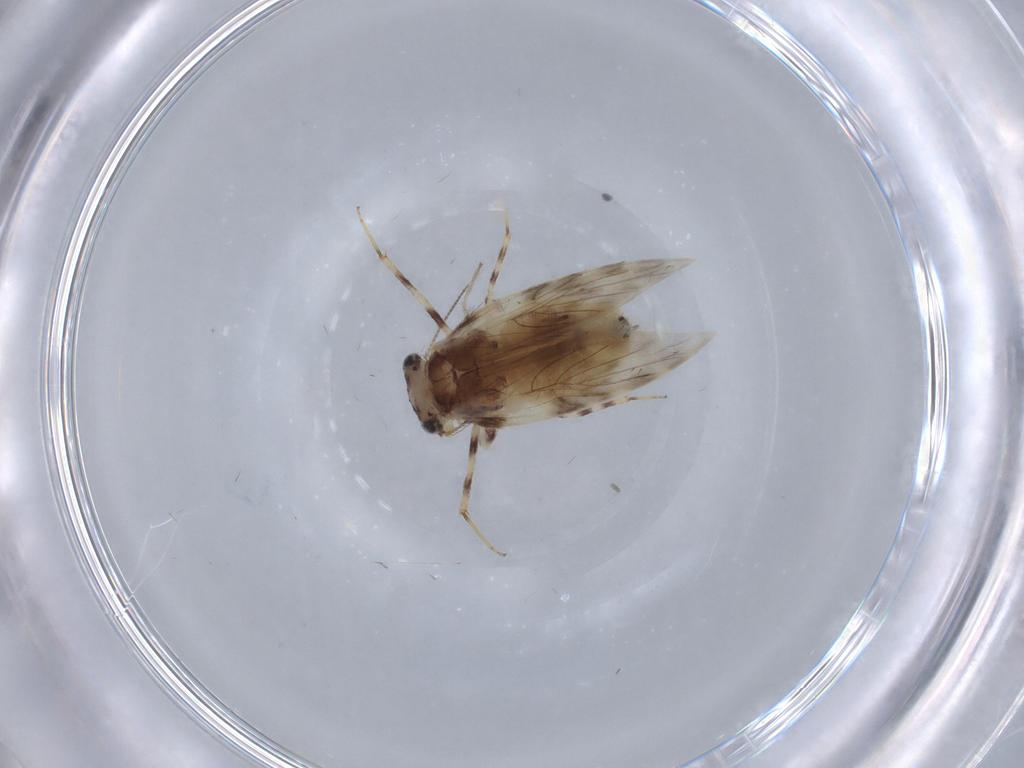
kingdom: Animalia
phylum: Arthropoda
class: Insecta
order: Psocodea
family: Lepidopsocidae
